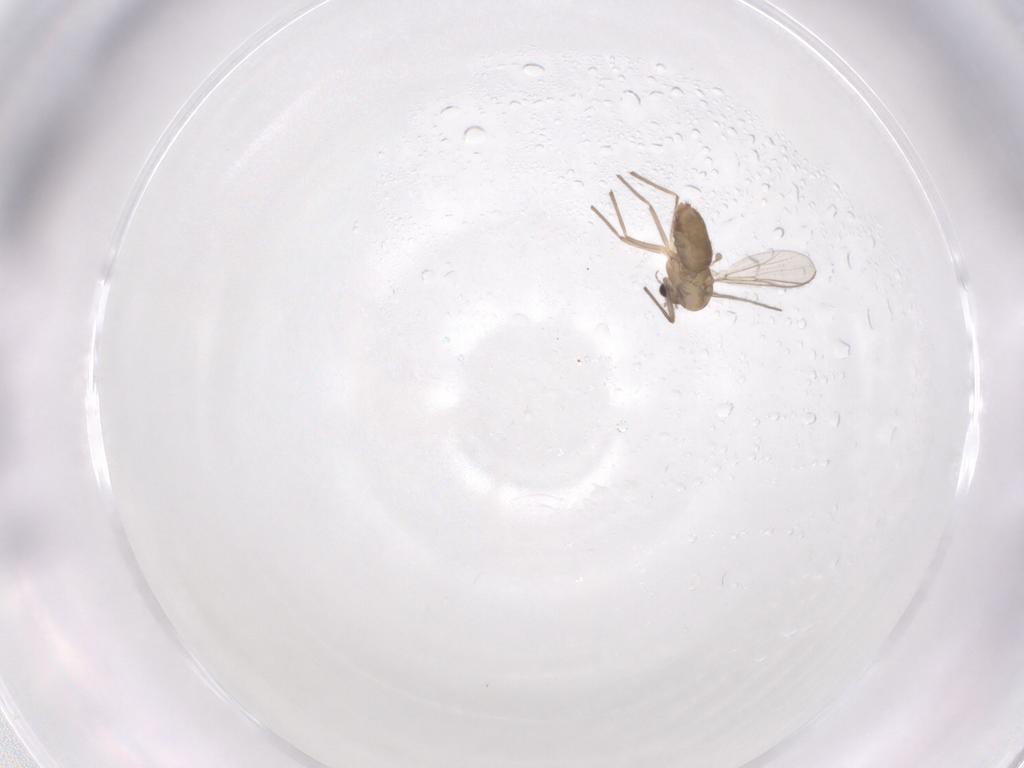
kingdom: Animalia
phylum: Arthropoda
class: Insecta
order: Diptera
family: Chironomidae
